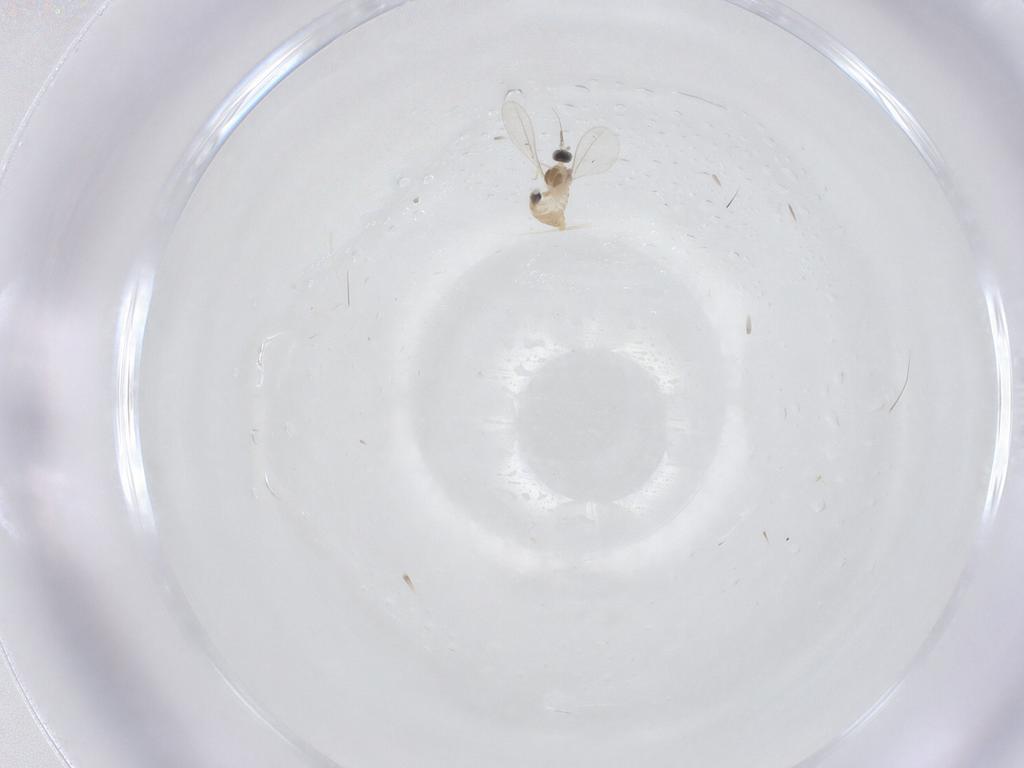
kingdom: Animalia
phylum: Arthropoda
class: Insecta
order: Diptera
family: Cecidomyiidae
